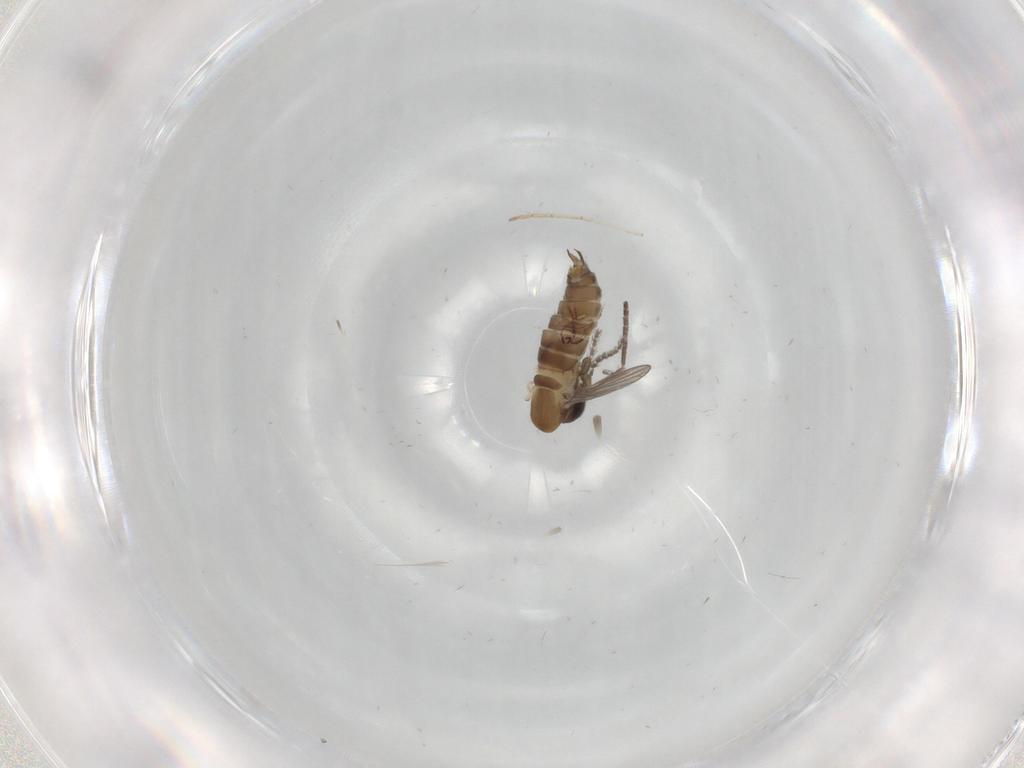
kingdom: Animalia
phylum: Arthropoda
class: Insecta
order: Diptera
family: Psychodidae
